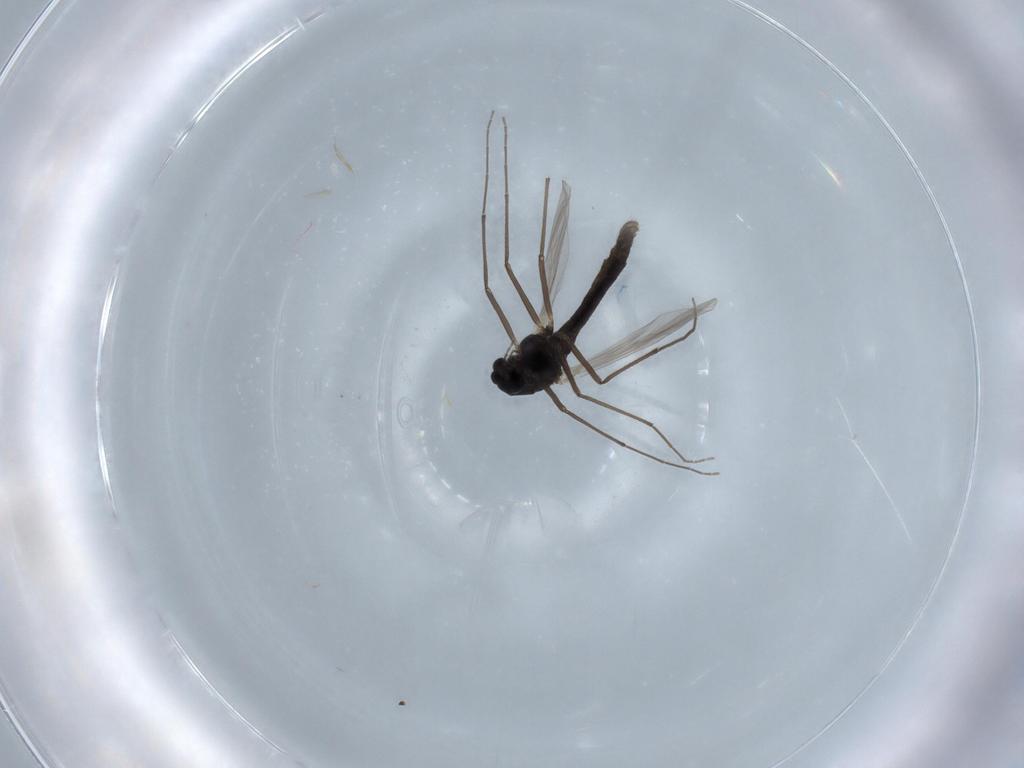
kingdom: Animalia
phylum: Arthropoda
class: Insecta
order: Diptera
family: Chironomidae
